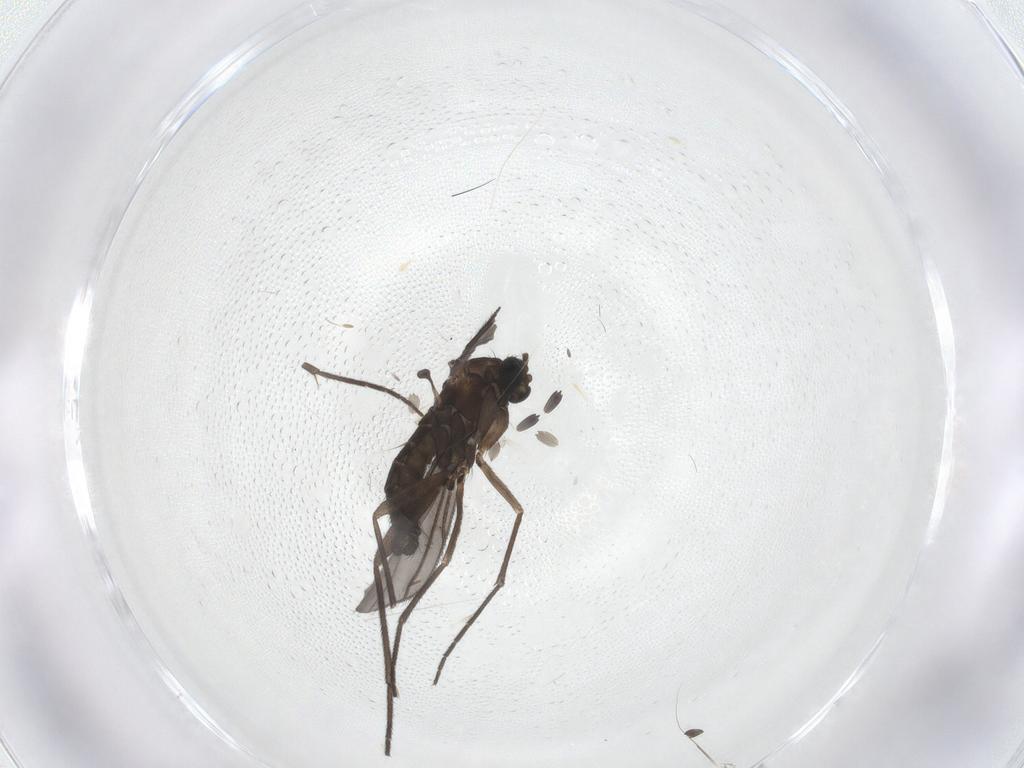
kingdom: Animalia
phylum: Arthropoda
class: Insecta
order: Diptera
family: Sciaridae
